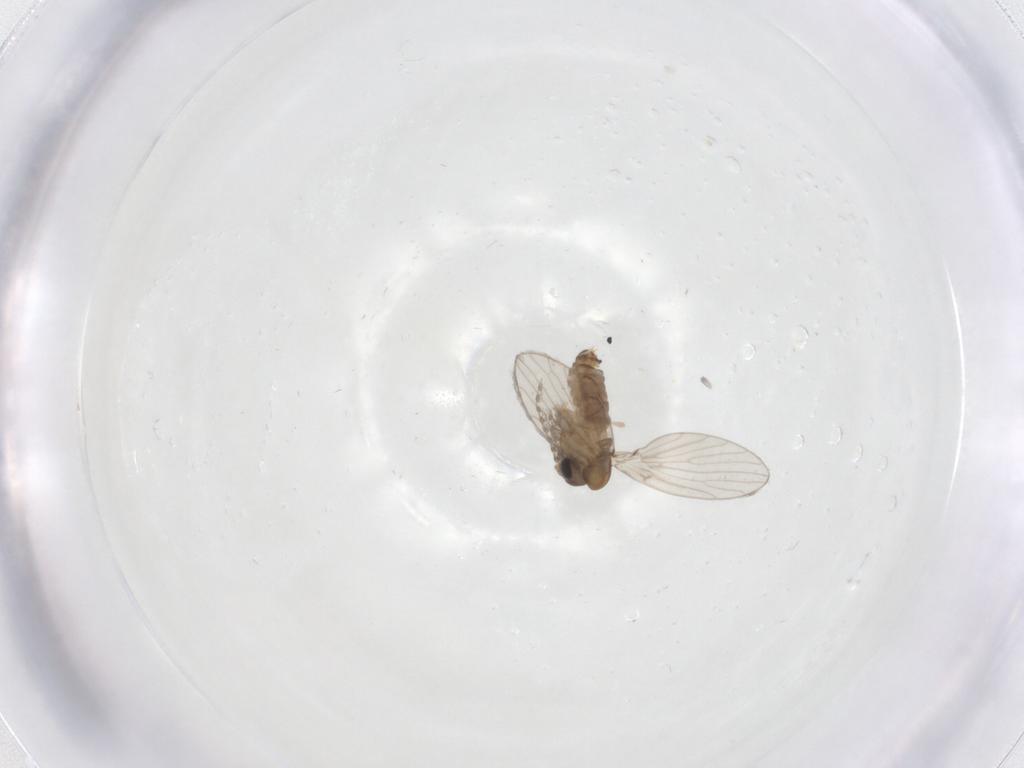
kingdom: Animalia
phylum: Arthropoda
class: Insecta
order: Diptera
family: Psychodidae
